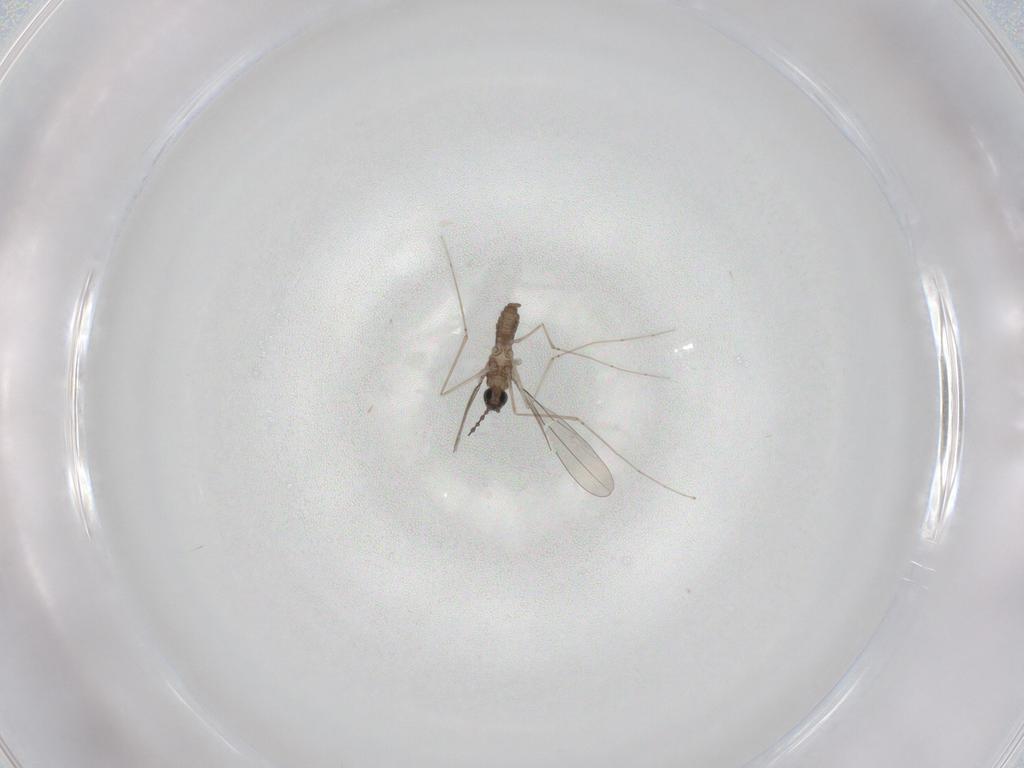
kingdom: Animalia
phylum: Arthropoda
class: Insecta
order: Diptera
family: Cecidomyiidae
